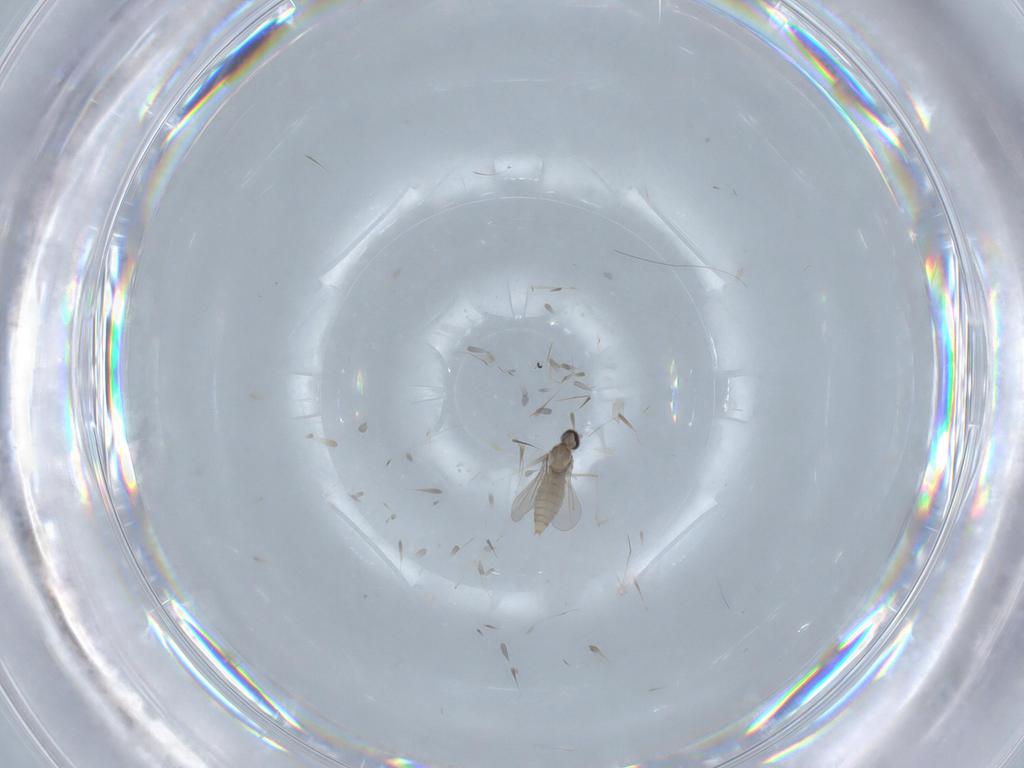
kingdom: Animalia
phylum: Arthropoda
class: Insecta
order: Diptera
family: Cecidomyiidae
